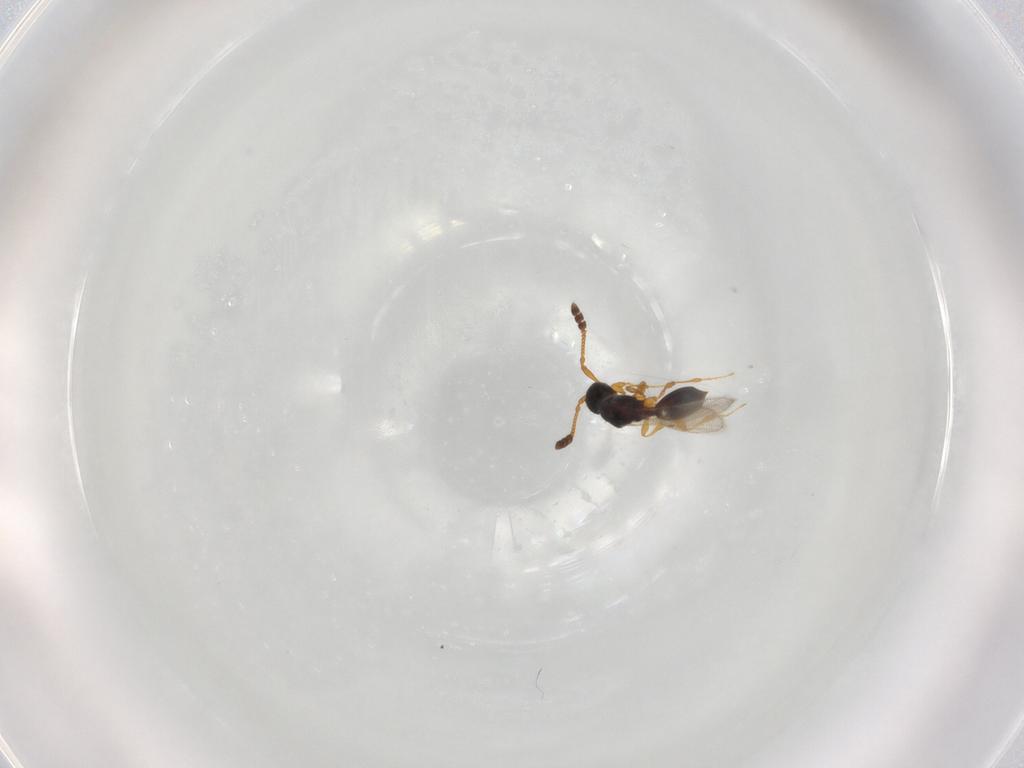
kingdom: Animalia
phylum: Arthropoda
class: Insecta
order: Hymenoptera
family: Diapriidae
